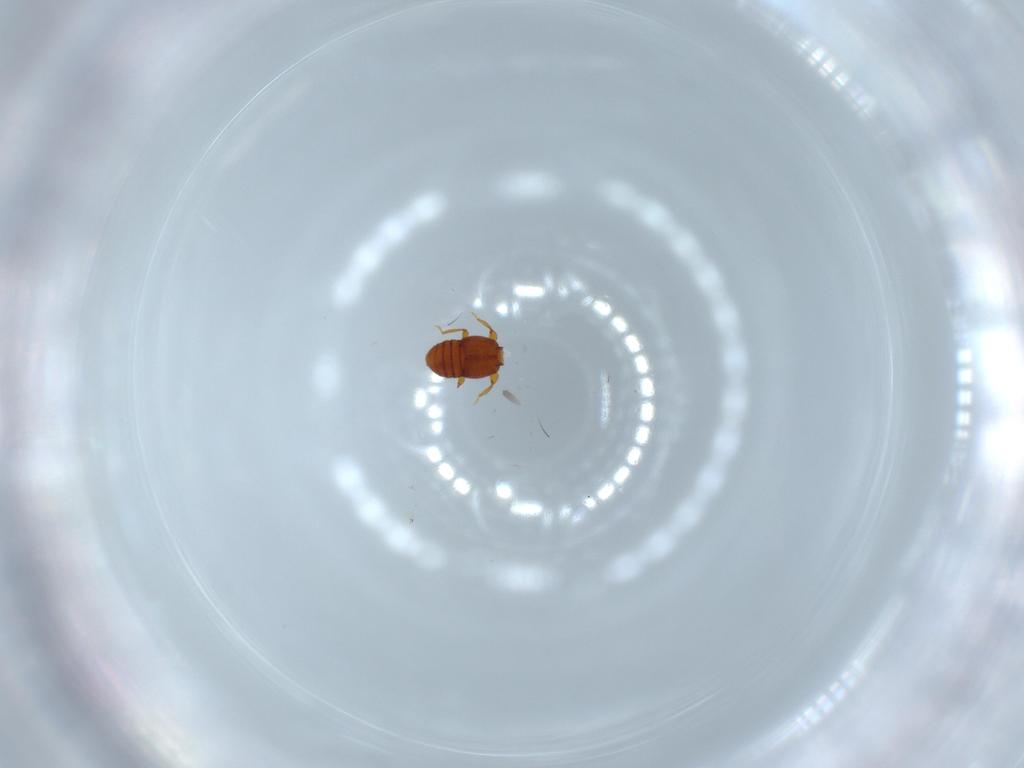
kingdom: Animalia
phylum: Arthropoda
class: Insecta
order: Coleoptera
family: Staphylinidae
